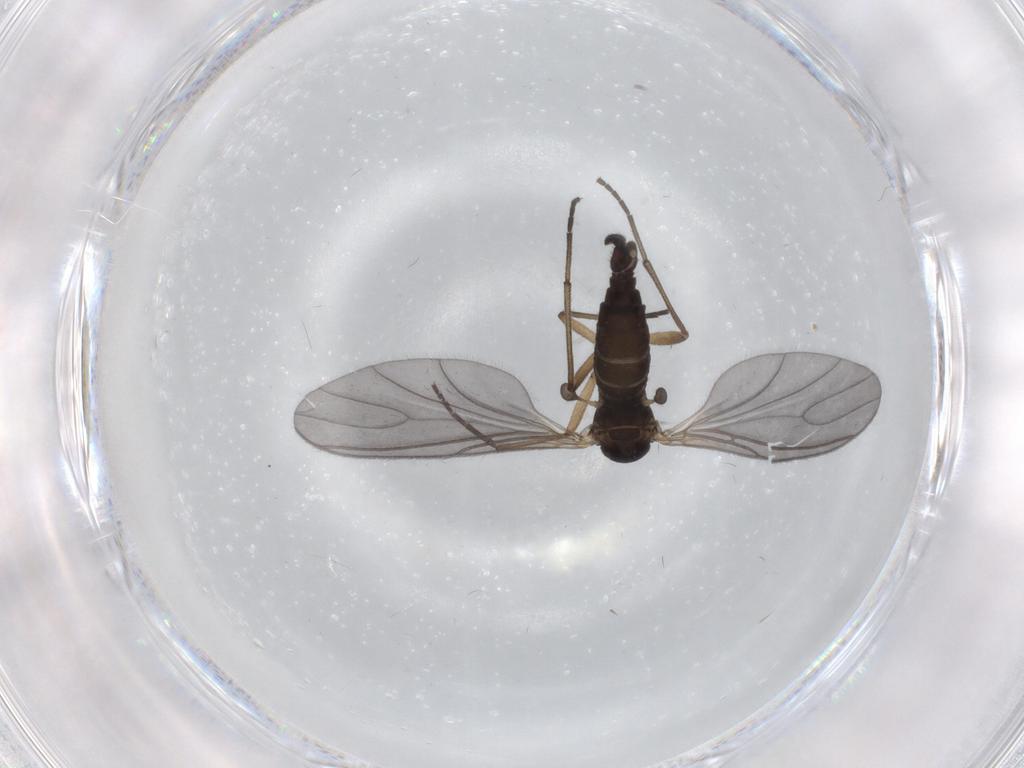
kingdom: Animalia
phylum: Arthropoda
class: Insecta
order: Diptera
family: Sciaridae
